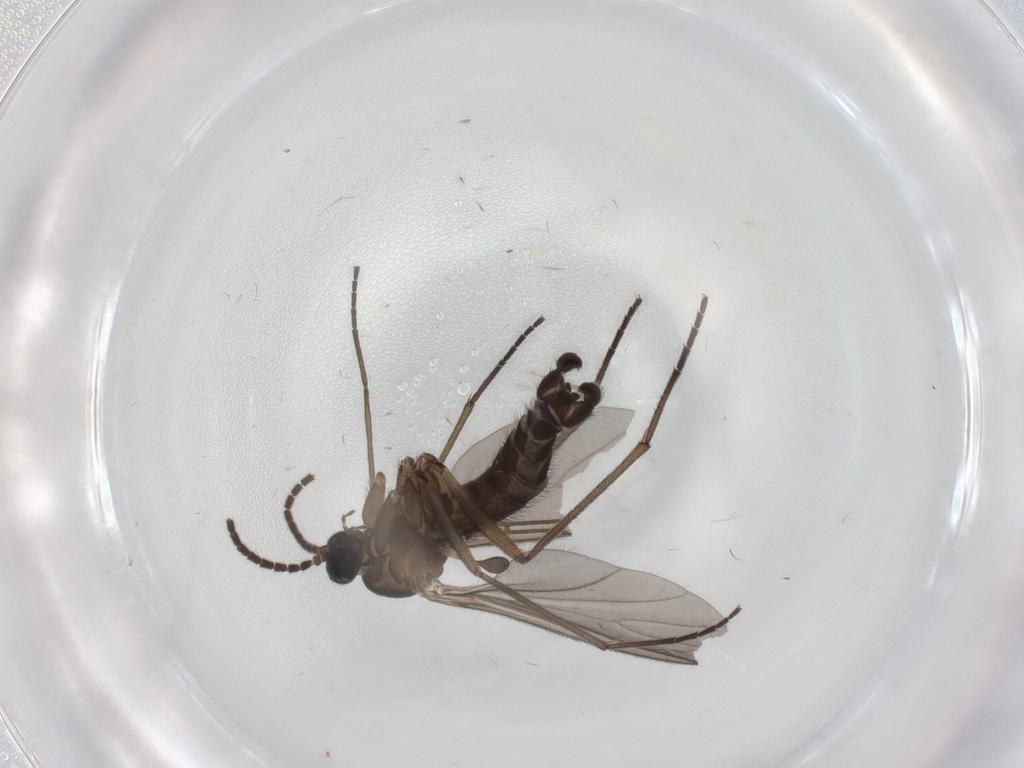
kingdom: Animalia
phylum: Arthropoda
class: Insecta
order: Diptera
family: Sciaridae
